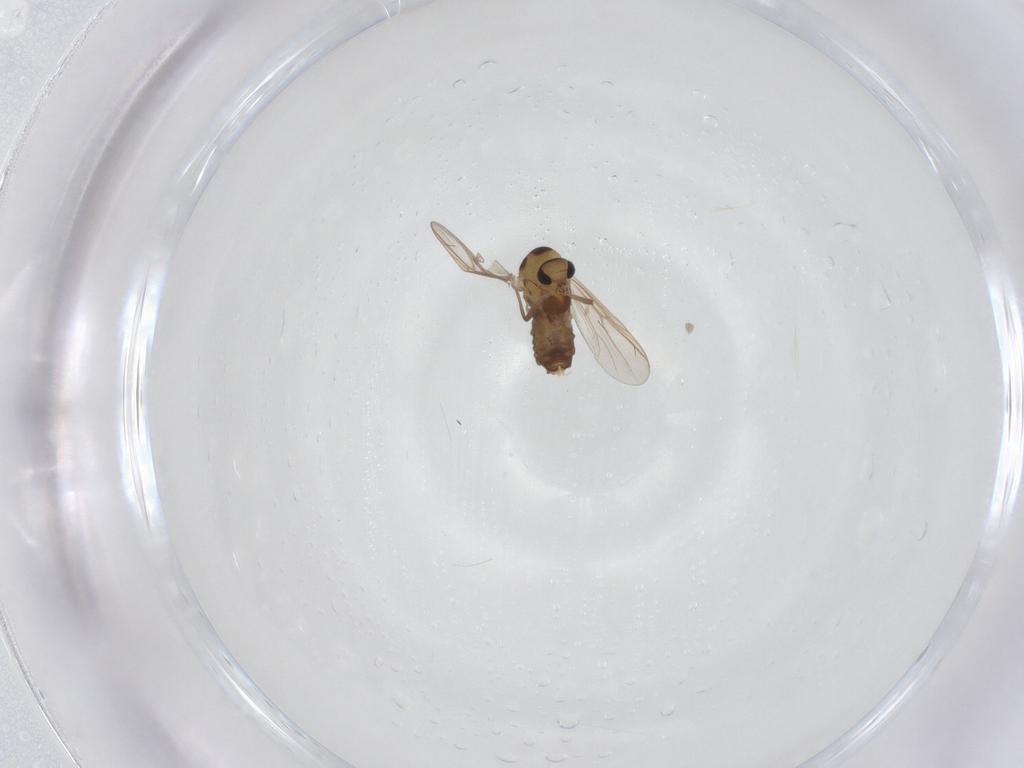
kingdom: Animalia
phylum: Arthropoda
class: Insecta
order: Diptera
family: Chironomidae
